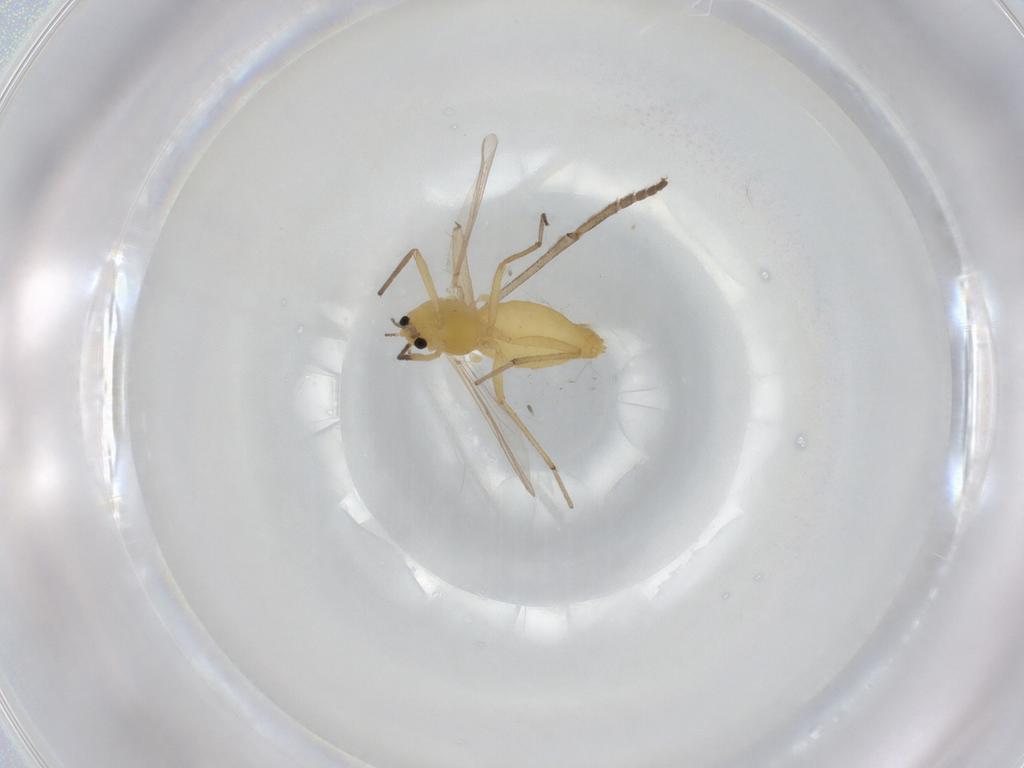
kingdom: Animalia
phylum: Arthropoda
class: Insecta
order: Diptera
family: Chironomidae
